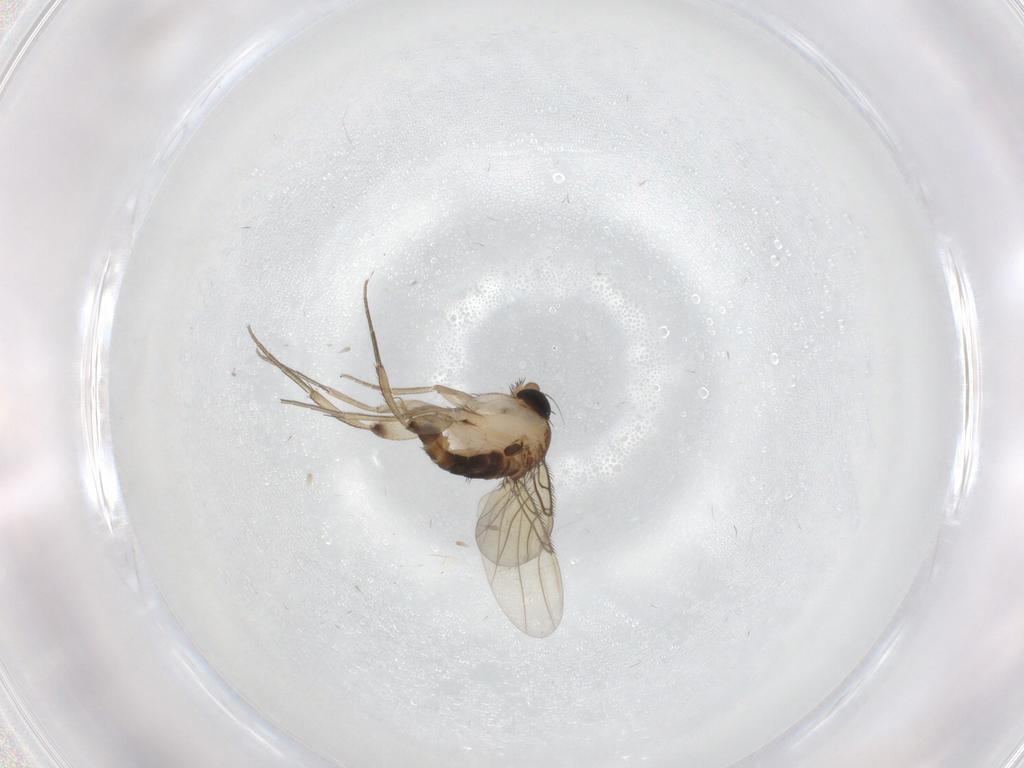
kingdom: Animalia
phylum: Arthropoda
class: Insecta
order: Diptera
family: Phoridae
